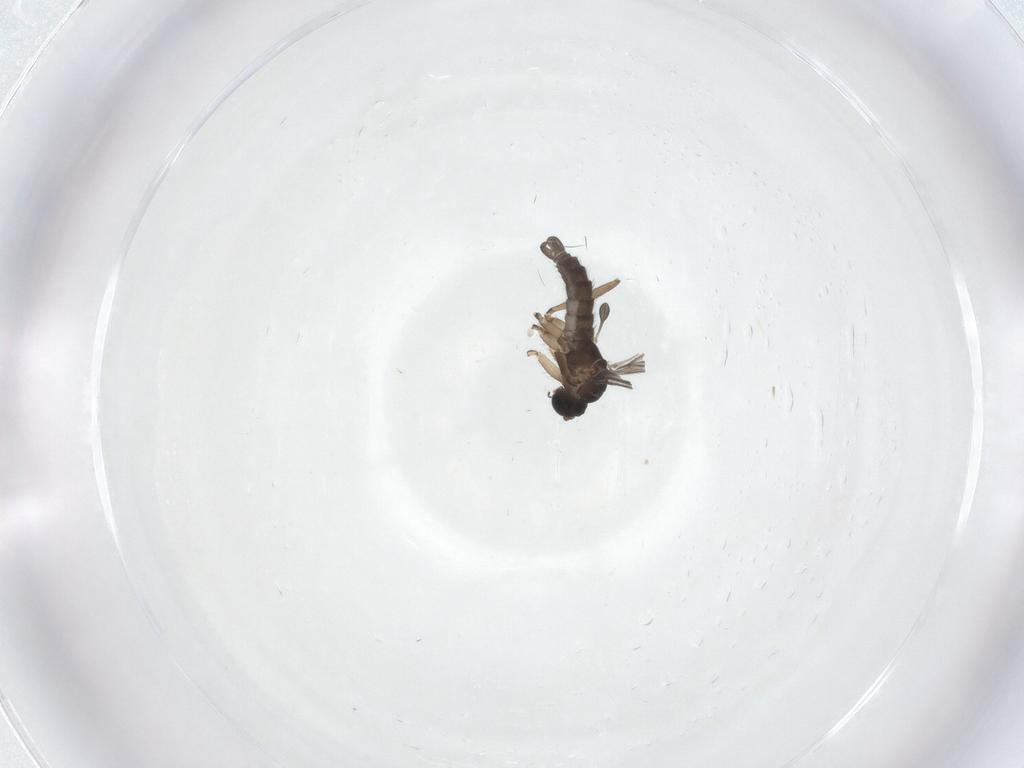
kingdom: Animalia
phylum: Arthropoda
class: Insecta
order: Diptera
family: Sciaridae
